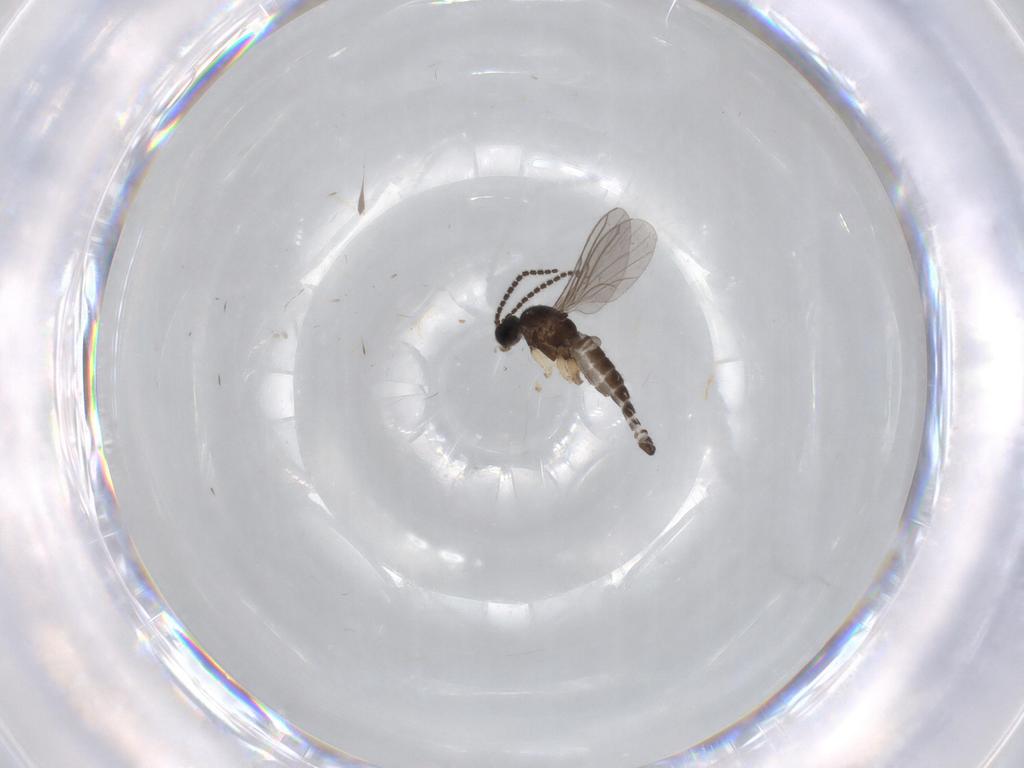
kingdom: Animalia
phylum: Arthropoda
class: Insecta
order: Diptera
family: Sciaridae
